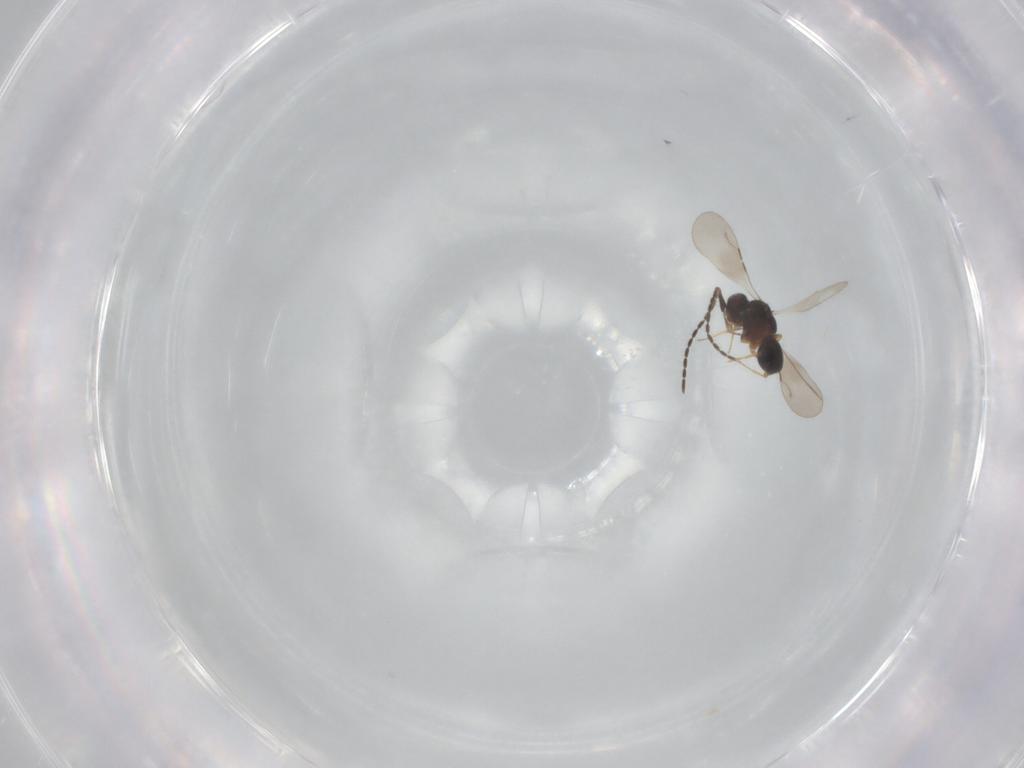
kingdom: Animalia
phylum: Arthropoda
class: Insecta
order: Hymenoptera
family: Ceraphronidae
